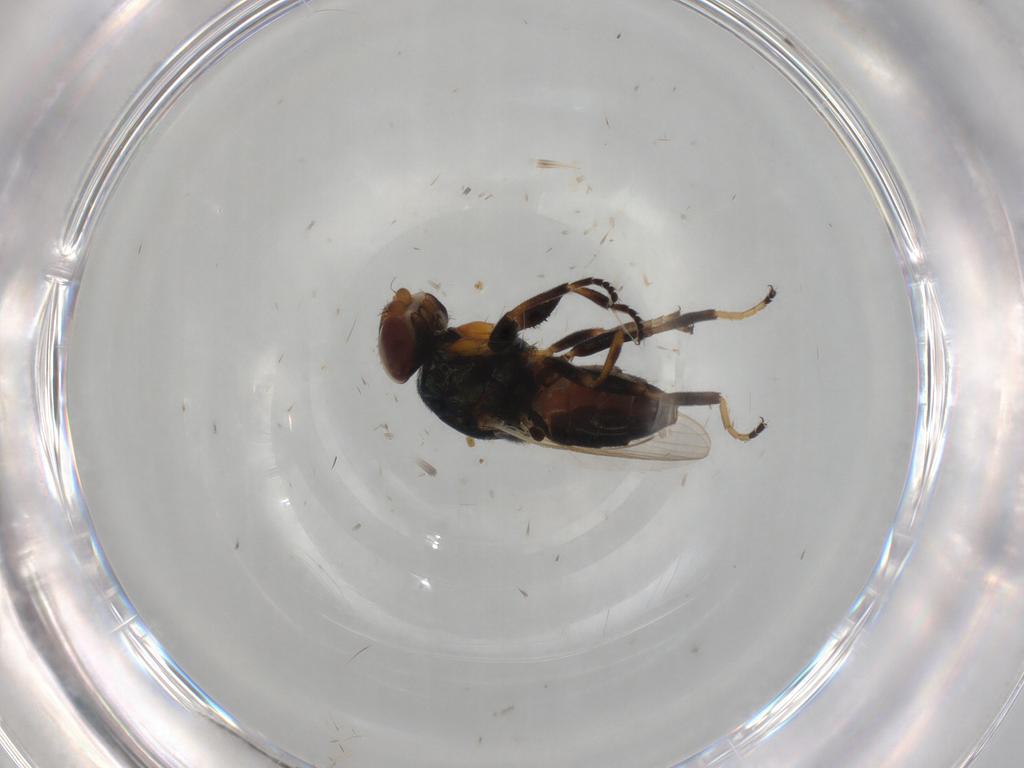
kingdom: Animalia
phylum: Arthropoda
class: Insecta
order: Diptera
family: Chloropidae
